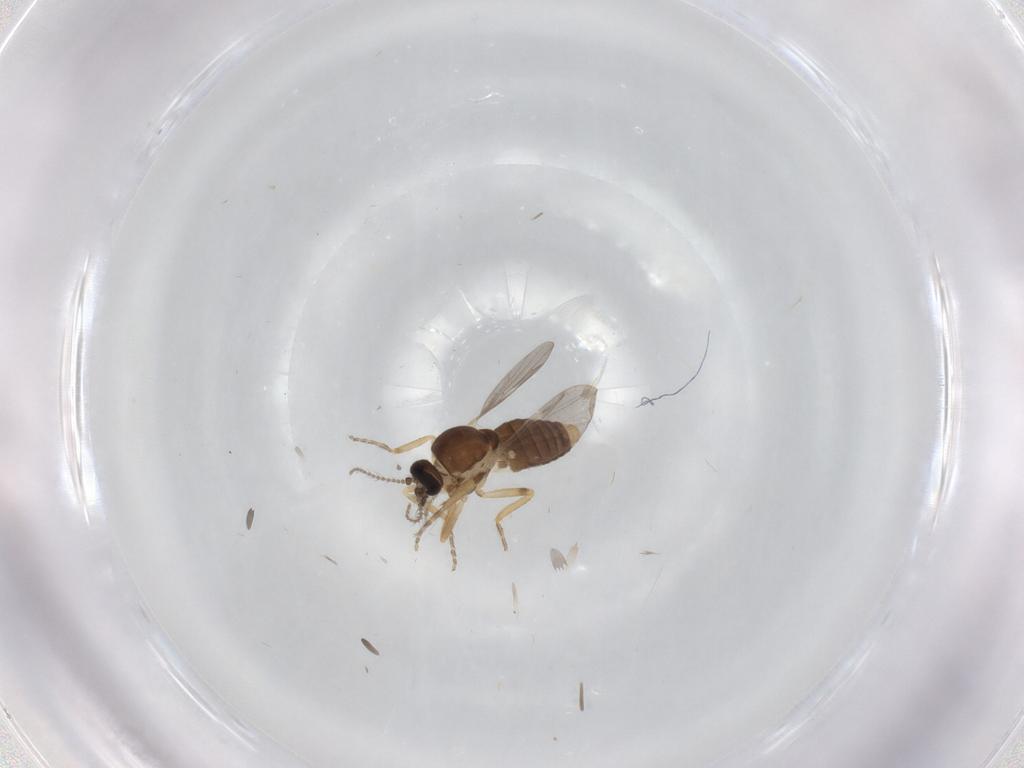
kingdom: Animalia
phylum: Arthropoda
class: Insecta
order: Diptera
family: Ceratopogonidae
